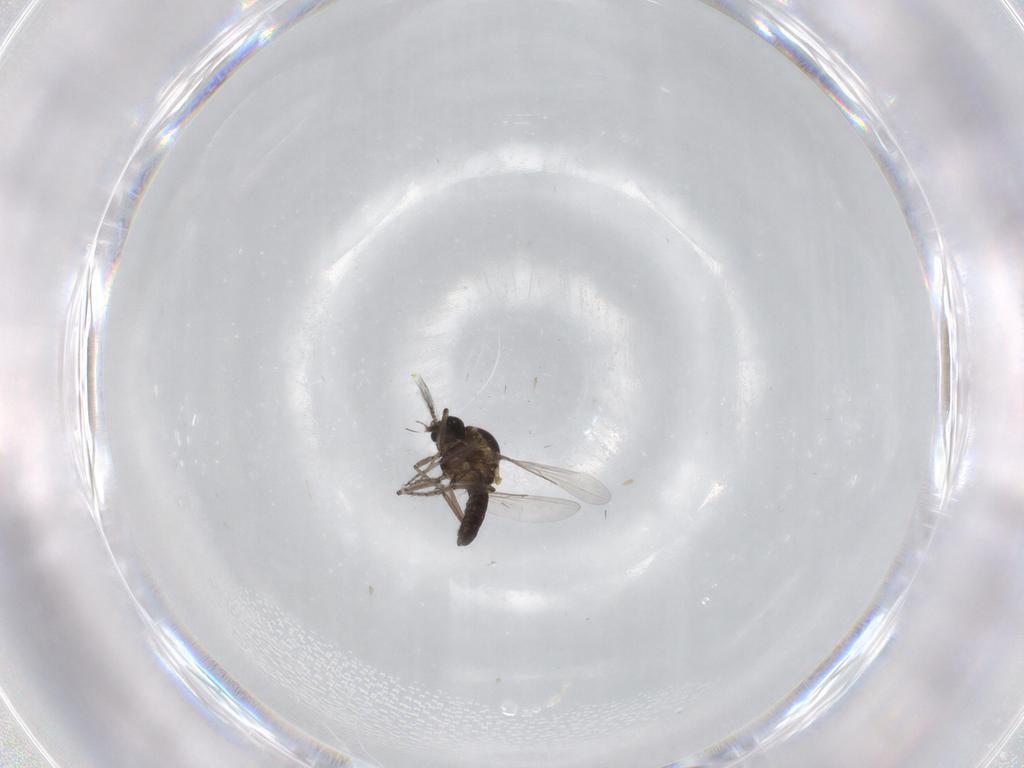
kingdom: Animalia
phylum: Arthropoda
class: Insecta
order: Diptera
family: Ceratopogonidae
